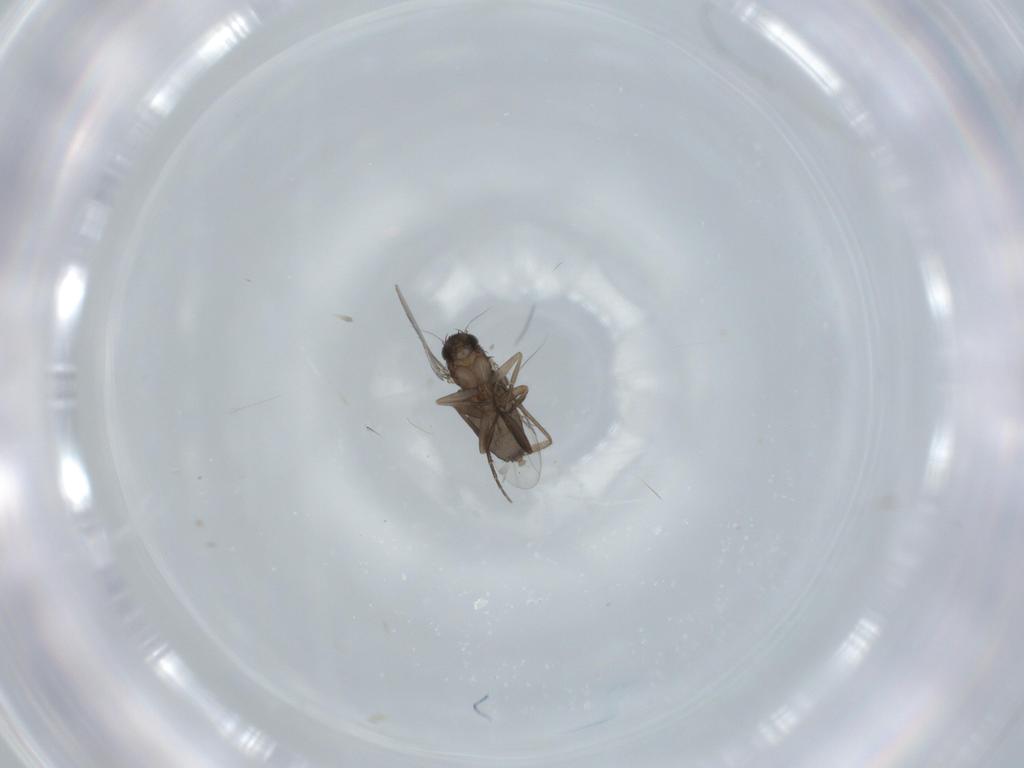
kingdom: Animalia
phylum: Arthropoda
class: Insecta
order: Diptera
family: Phoridae
